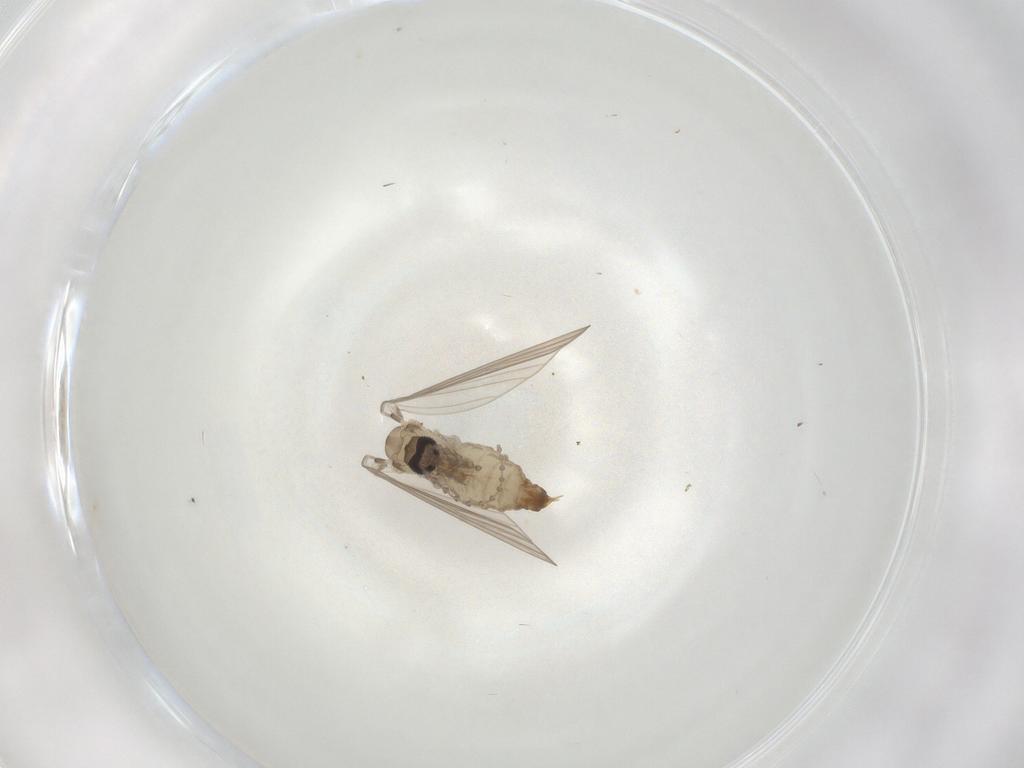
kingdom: Animalia
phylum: Arthropoda
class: Insecta
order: Diptera
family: Psychodidae
